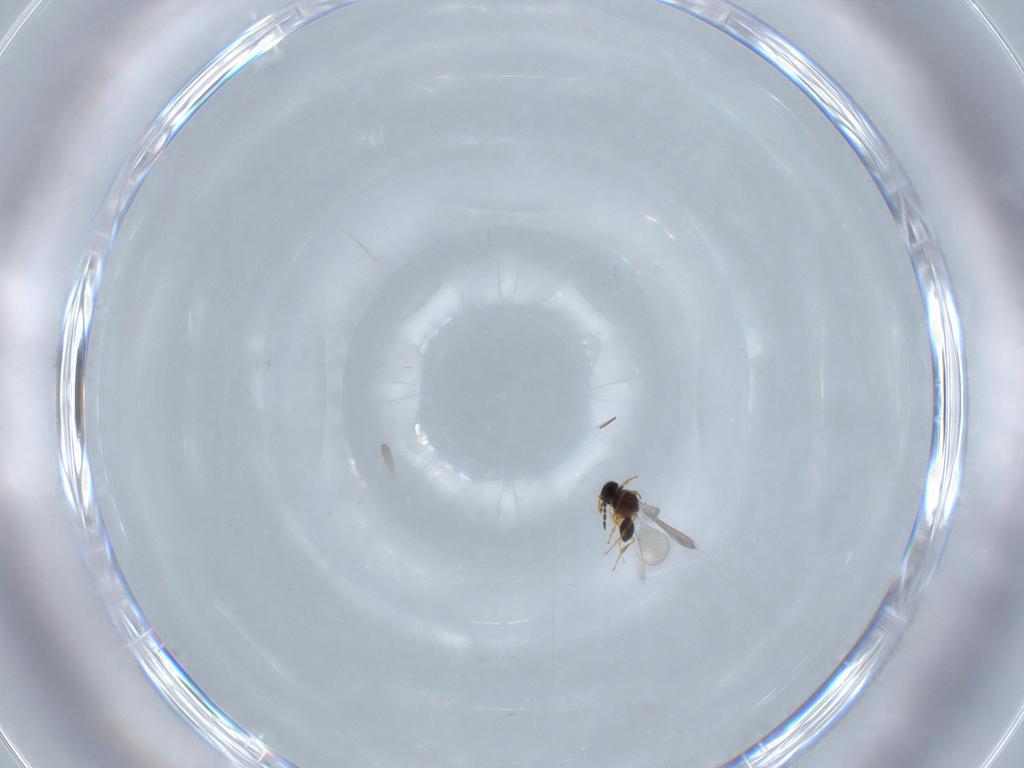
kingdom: Animalia
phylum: Arthropoda
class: Insecta
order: Hymenoptera
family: Platygastridae
